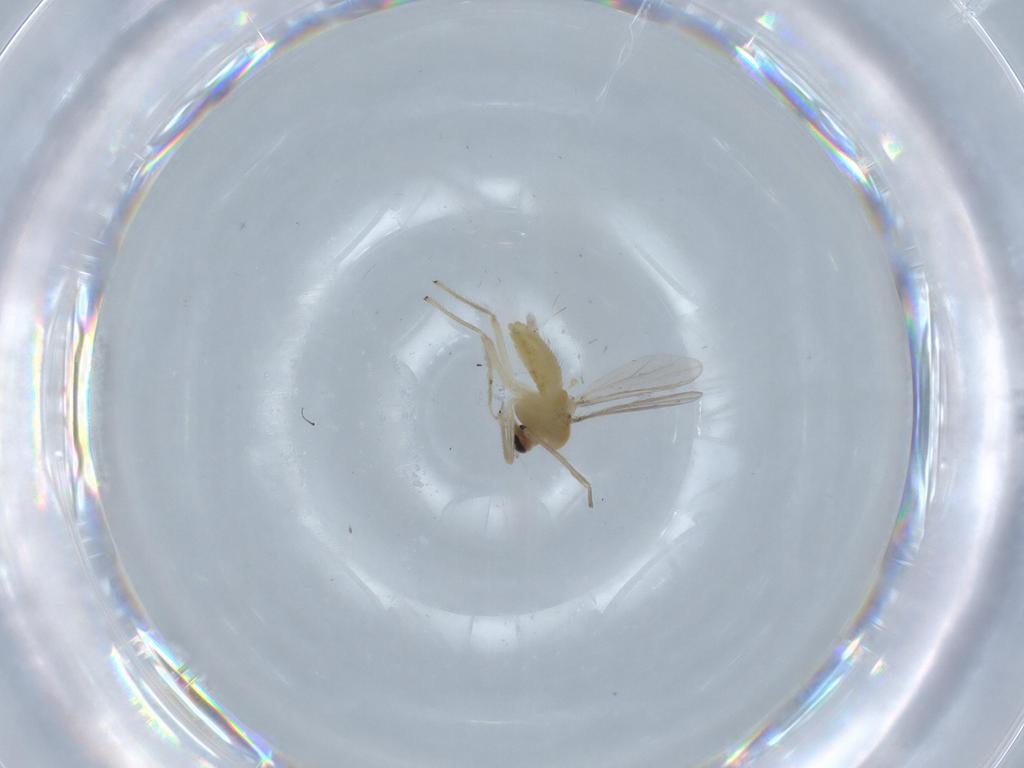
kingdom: Animalia
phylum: Arthropoda
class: Insecta
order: Diptera
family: Chironomidae
